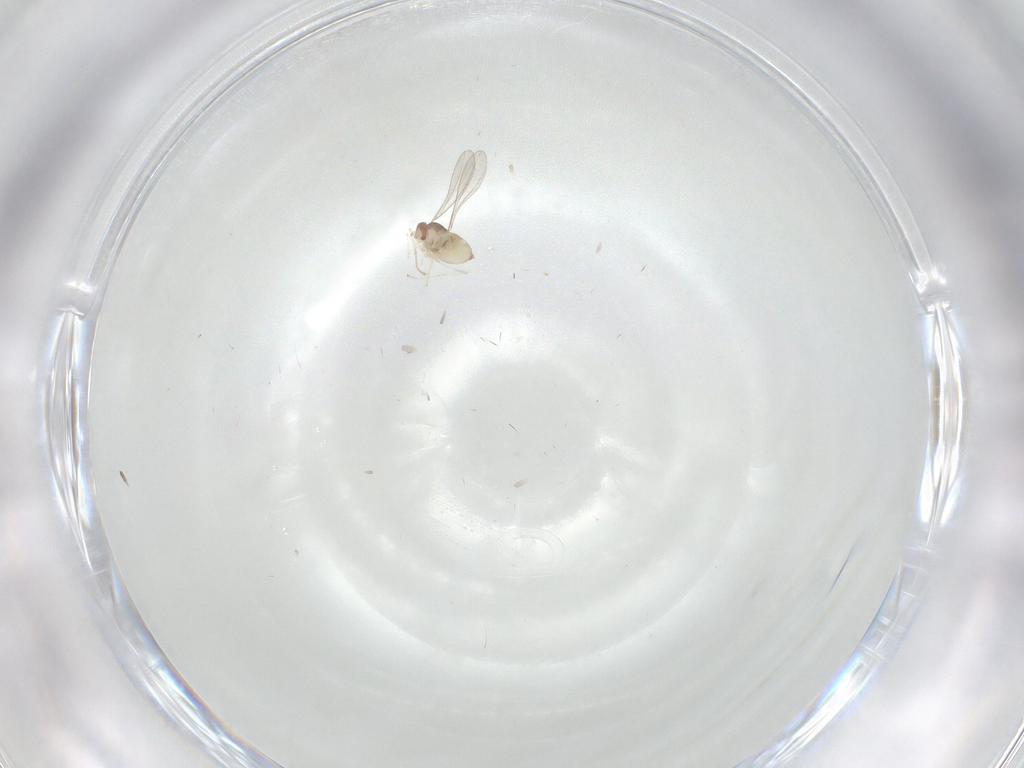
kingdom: Animalia
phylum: Arthropoda
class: Insecta
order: Diptera
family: Cecidomyiidae
